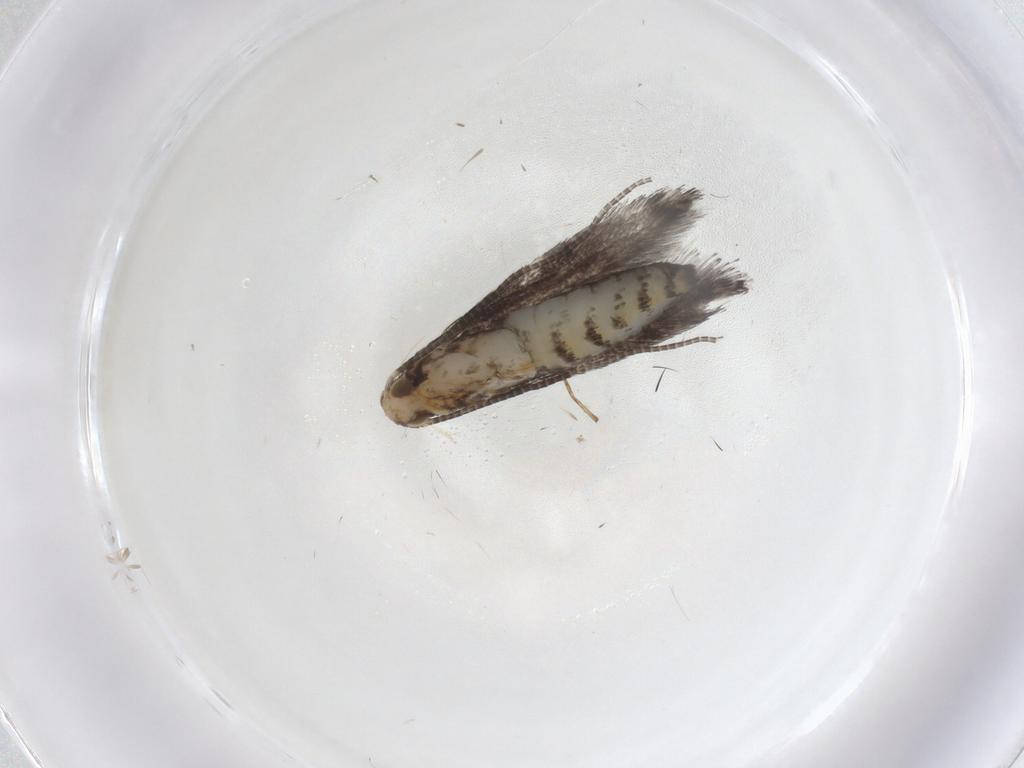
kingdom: Animalia
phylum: Arthropoda
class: Insecta
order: Lepidoptera
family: Gracillariidae
